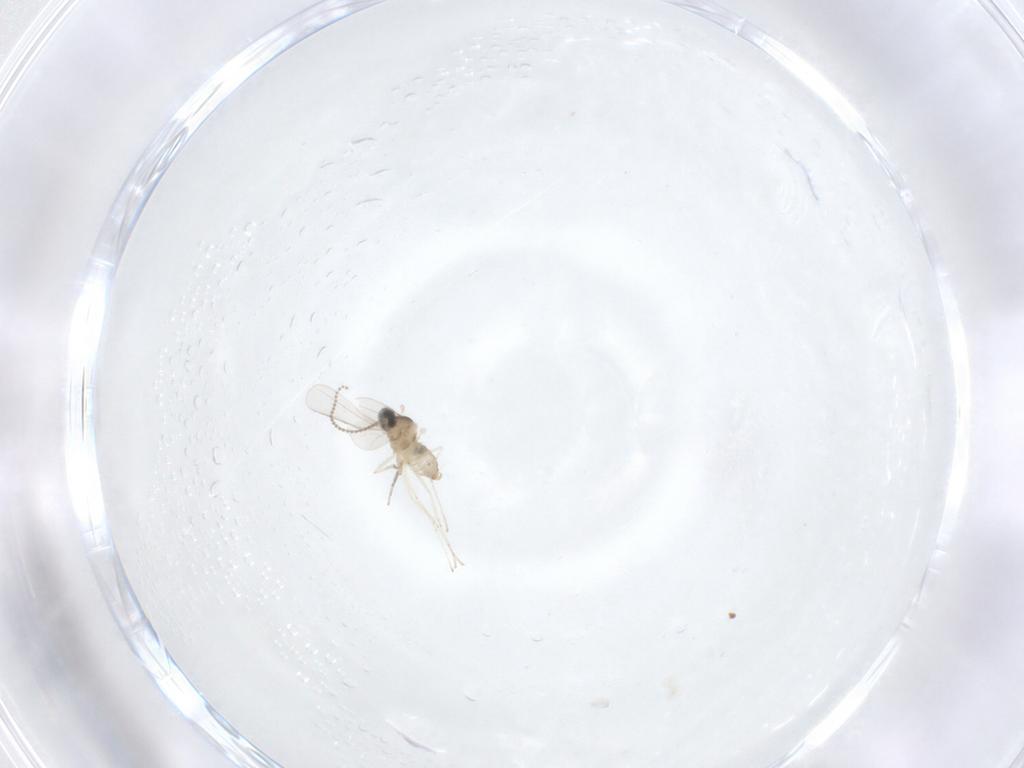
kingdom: Animalia
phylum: Arthropoda
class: Insecta
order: Diptera
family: Cecidomyiidae
